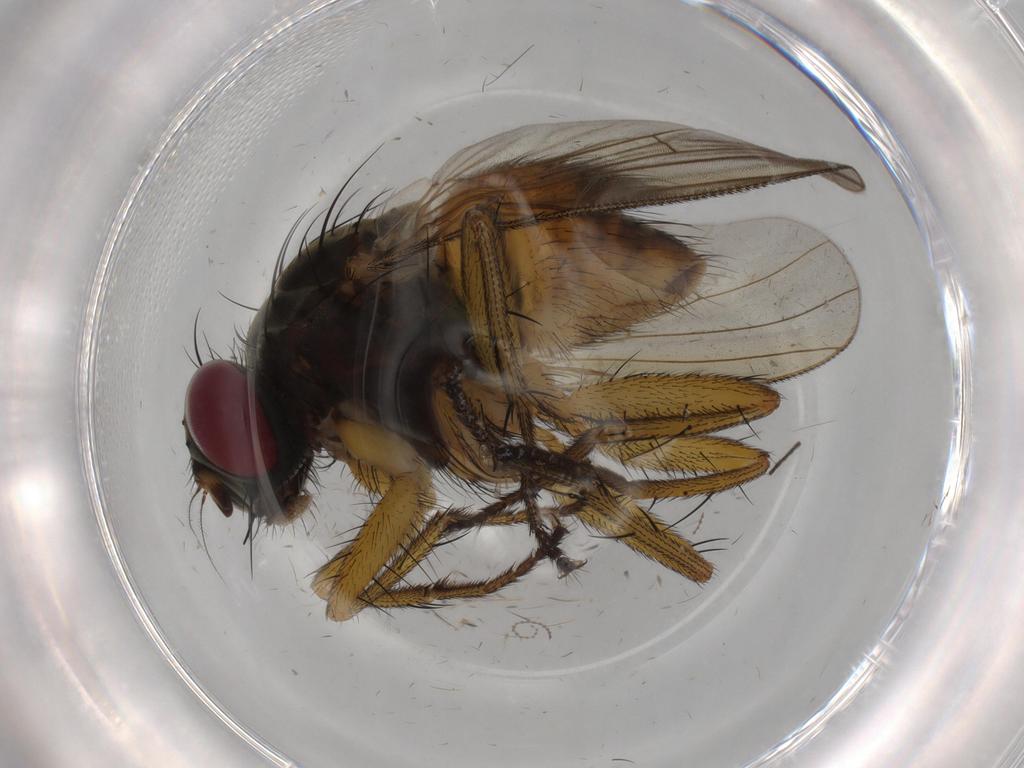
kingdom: Animalia
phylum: Arthropoda
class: Insecta
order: Diptera
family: Muscidae
